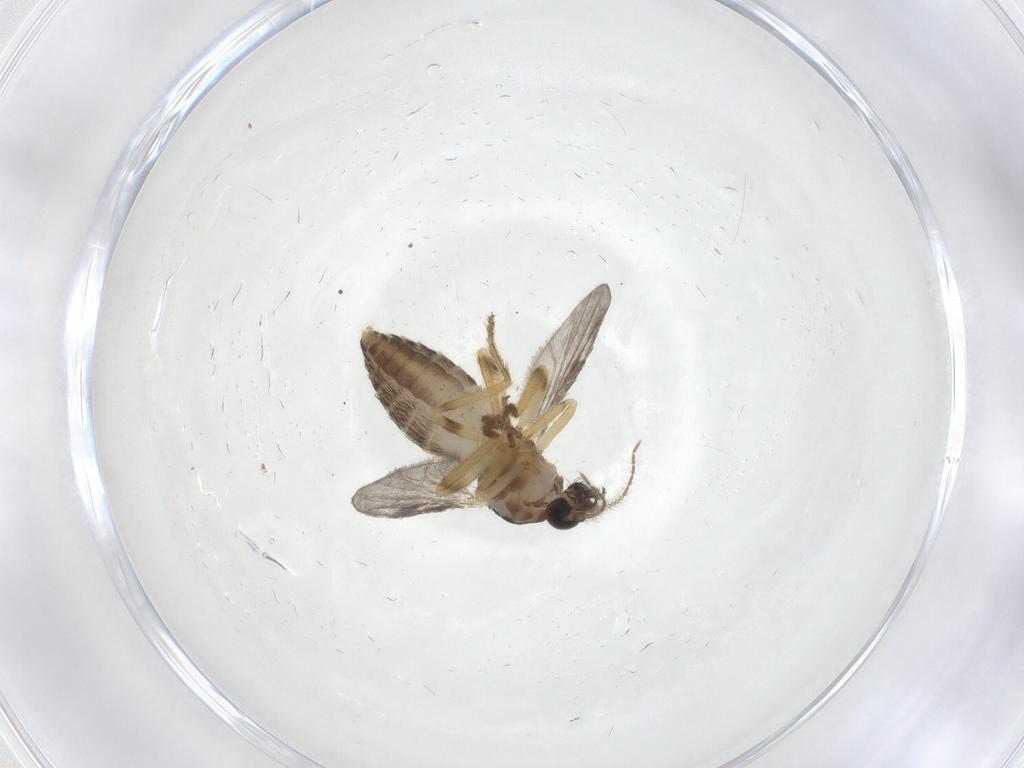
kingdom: Animalia
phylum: Arthropoda
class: Insecta
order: Diptera
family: Ceratopogonidae
